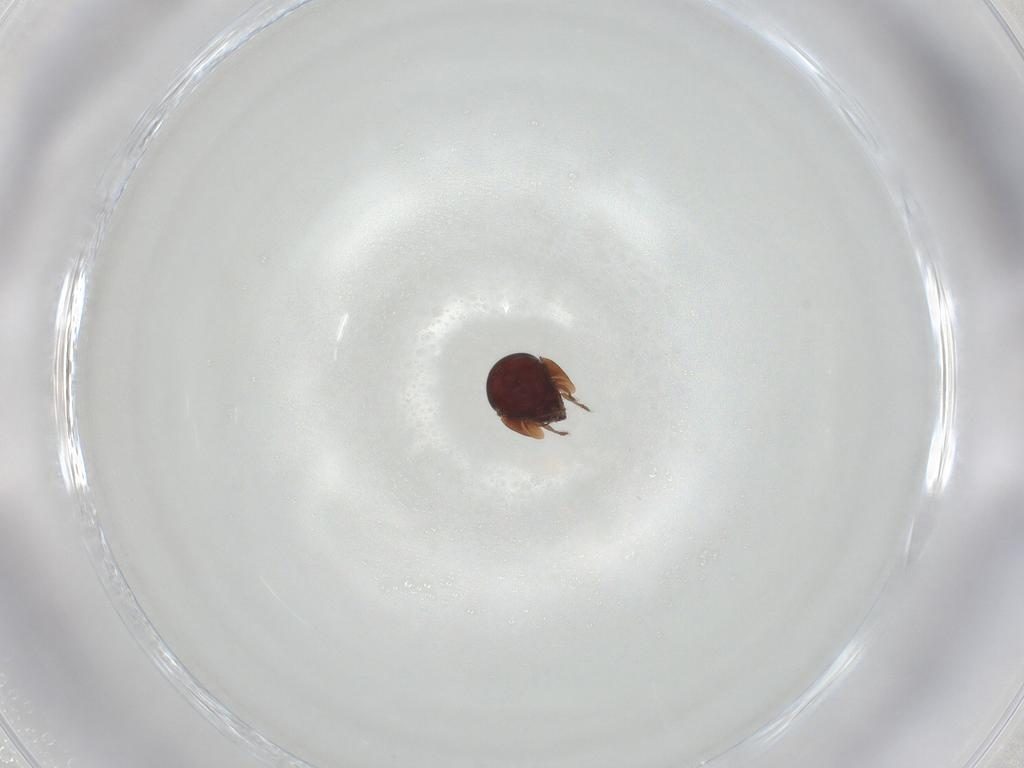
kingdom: Animalia
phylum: Arthropoda
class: Arachnida
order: Sarcoptiformes
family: Galumnidae
